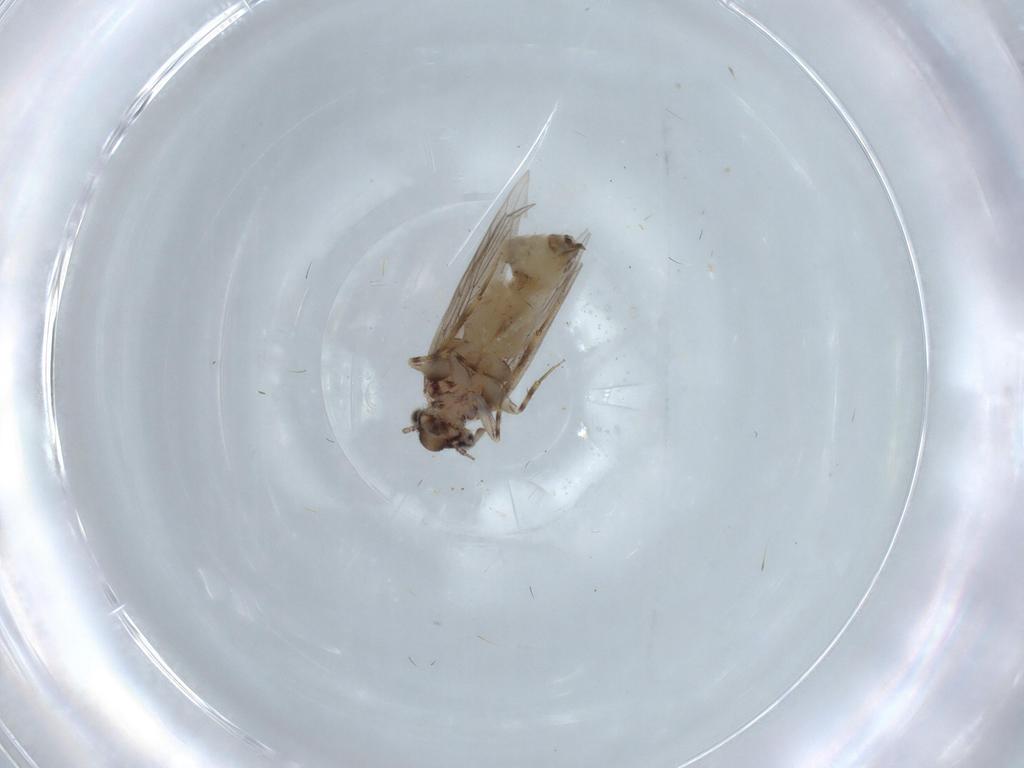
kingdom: Animalia
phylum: Arthropoda
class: Insecta
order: Psocodea
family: Lepidopsocidae
